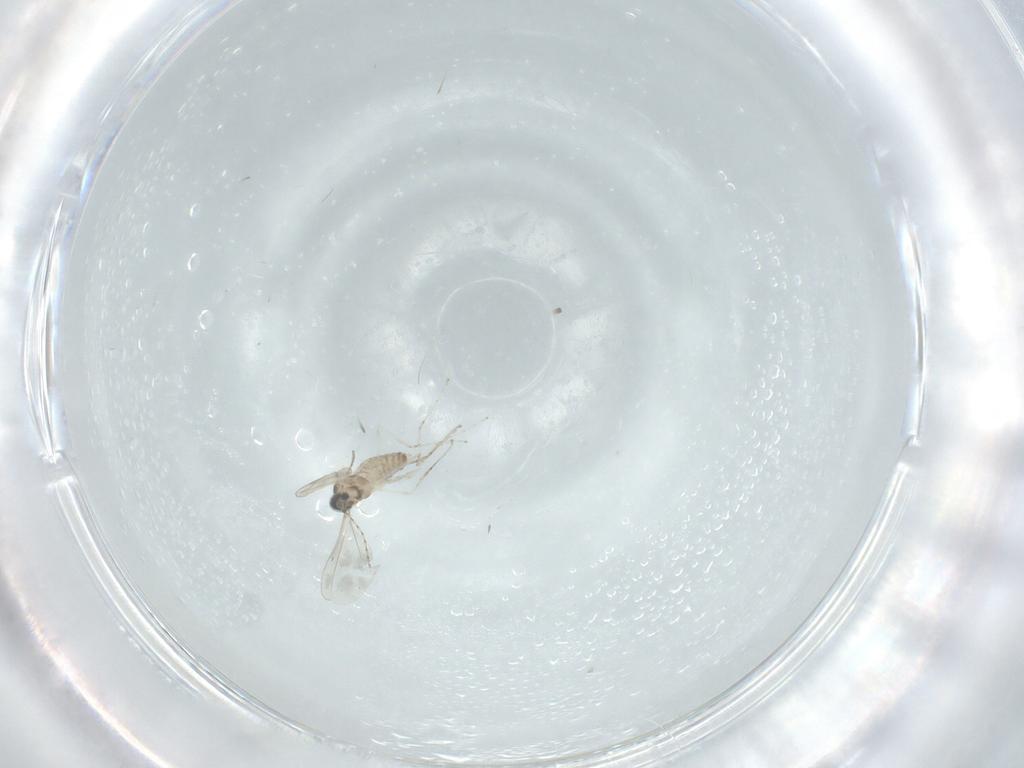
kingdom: Animalia
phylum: Arthropoda
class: Insecta
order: Diptera
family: Cecidomyiidae
